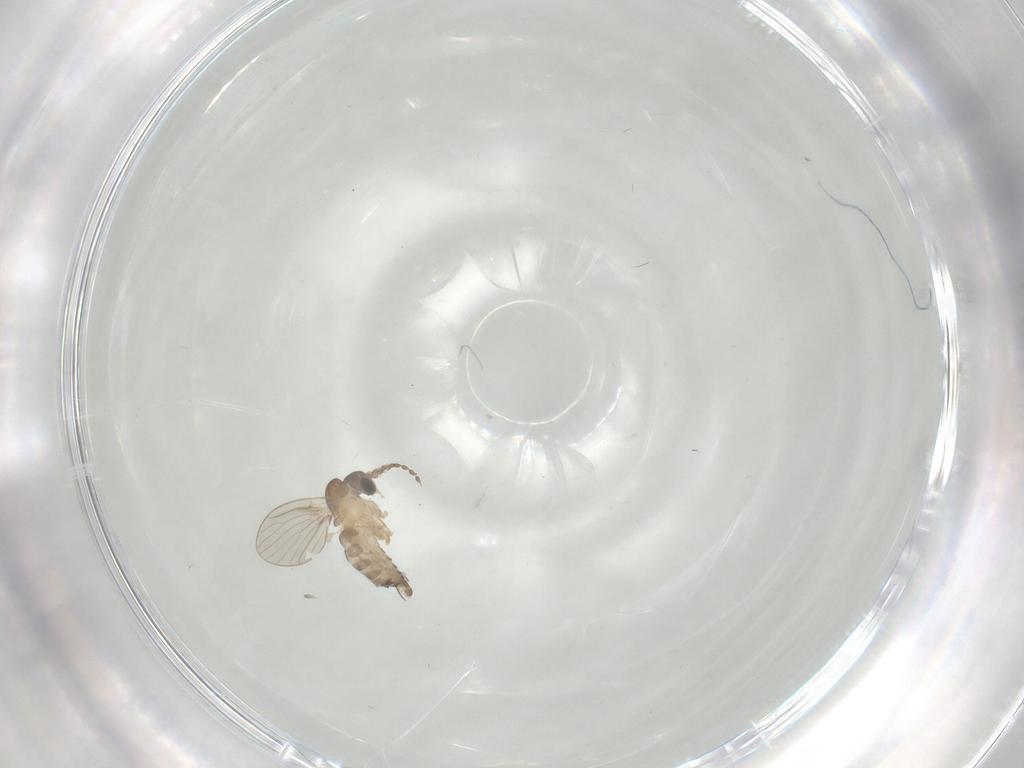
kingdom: Animalia
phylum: Arthropoda
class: Insecta
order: Diptera
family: Psychodidae
